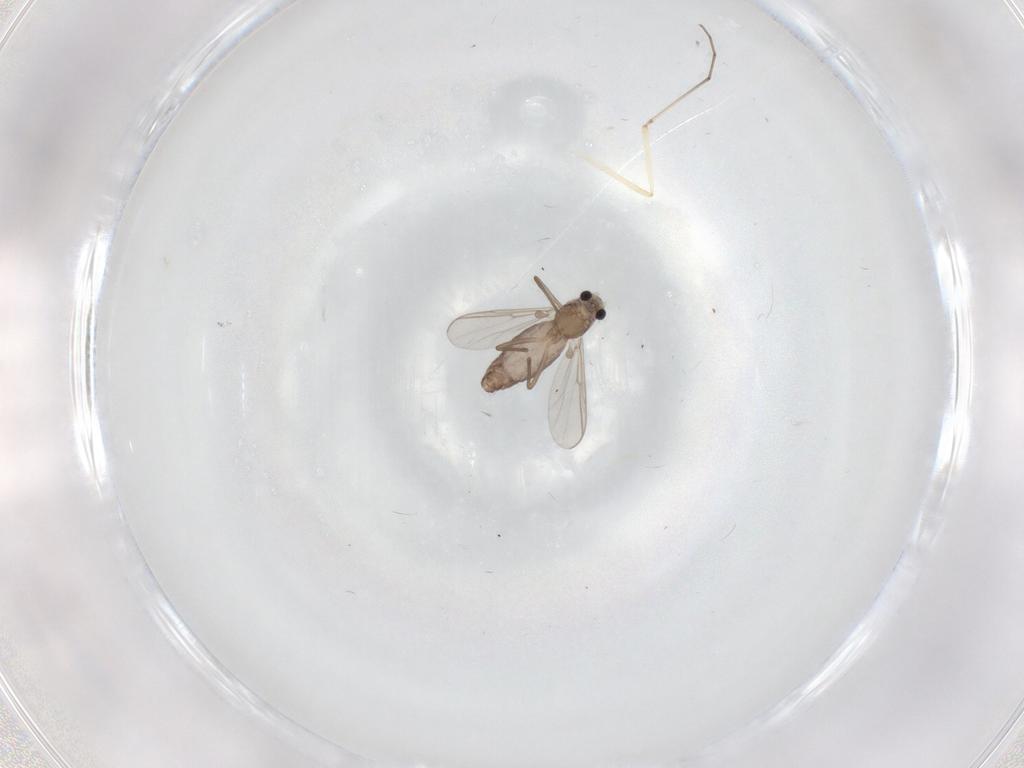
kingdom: Animalia
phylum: Arthropoda
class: Insecta
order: Diptera
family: Chironomidae
